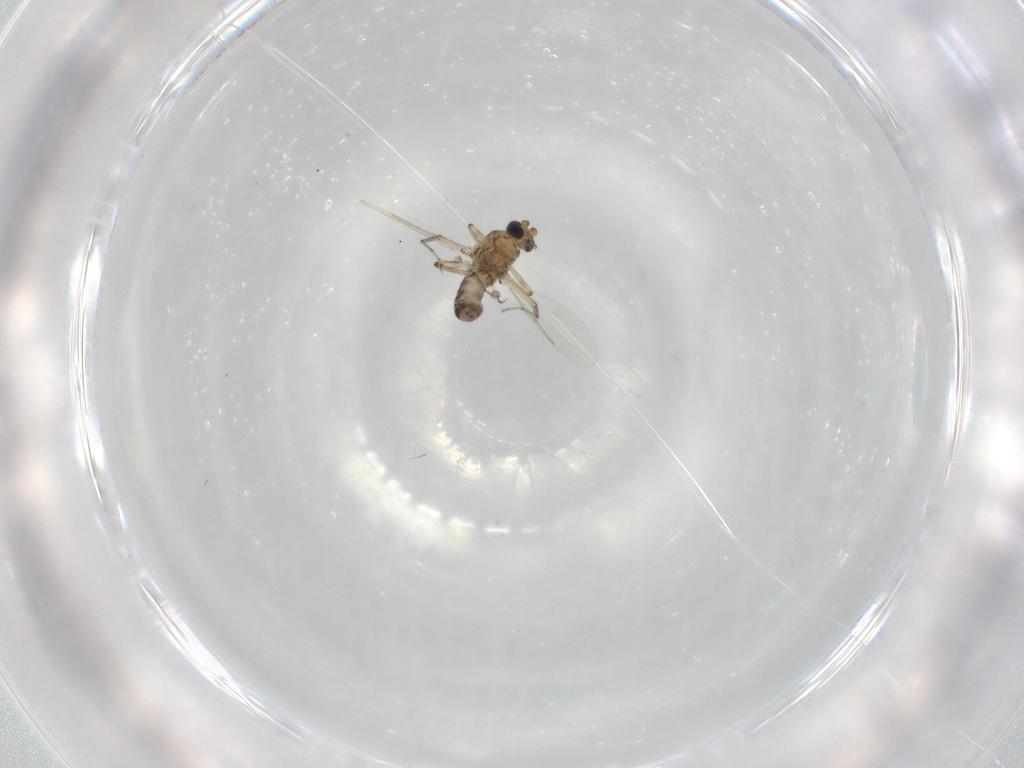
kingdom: Animalia
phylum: Arthropoda
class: Insecta
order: Diptera
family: Ceratopogonidae
